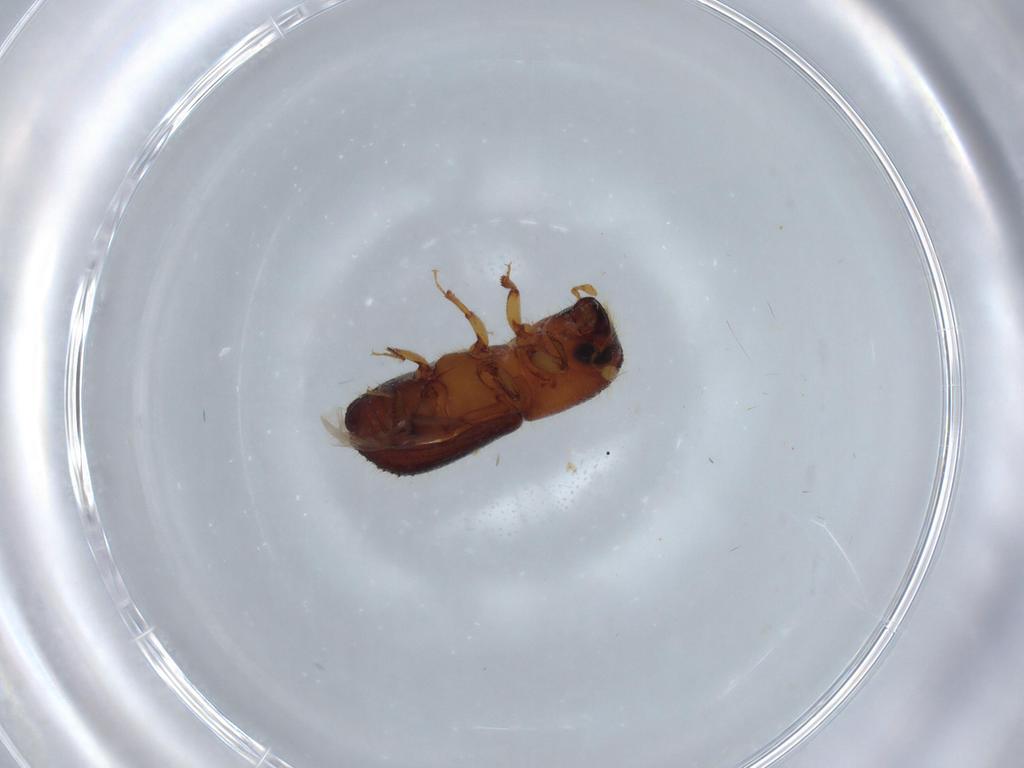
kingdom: Animalia
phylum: Arthropoda
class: Insecta
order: Coleoptera
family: Curculionidae
